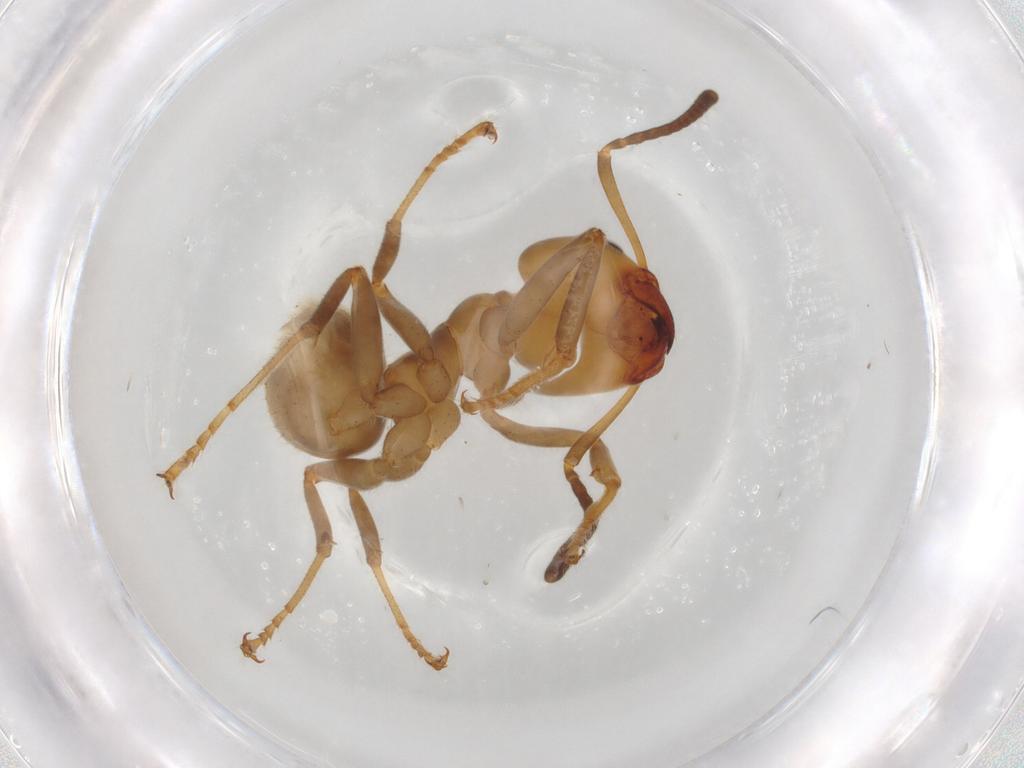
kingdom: Animalia
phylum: Arthropoda
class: Insecta
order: Hymenoptera
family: Formicidae
